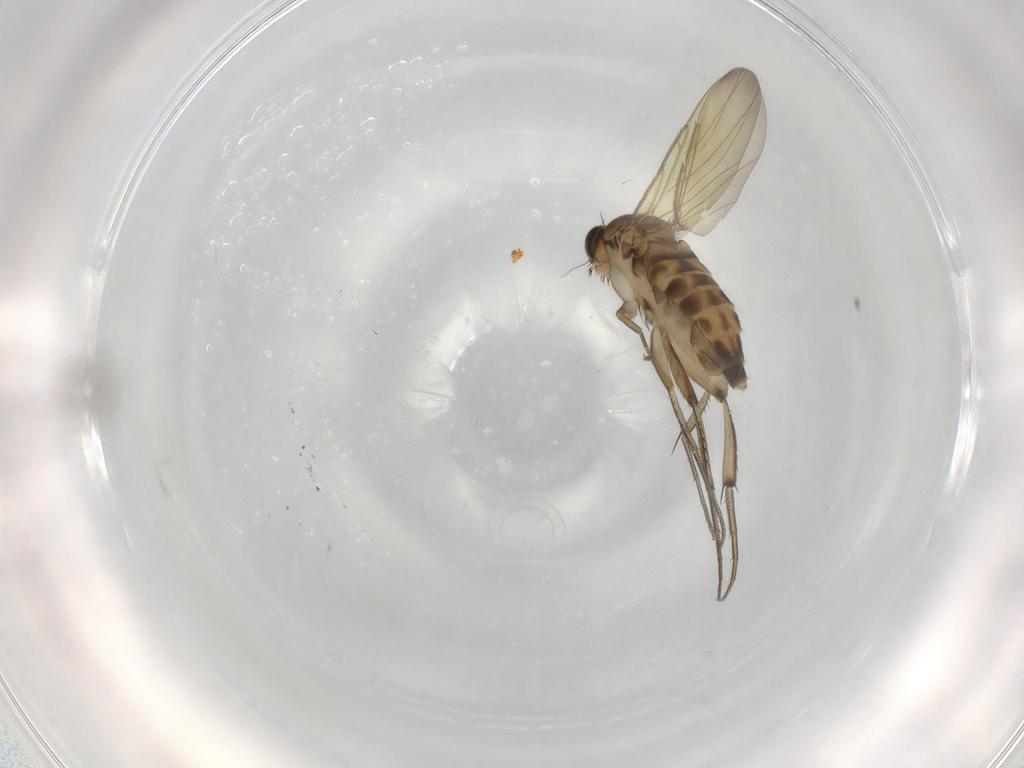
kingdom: Animalia
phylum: Arthropoda
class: Insecta
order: Diptera
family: Phoridae
